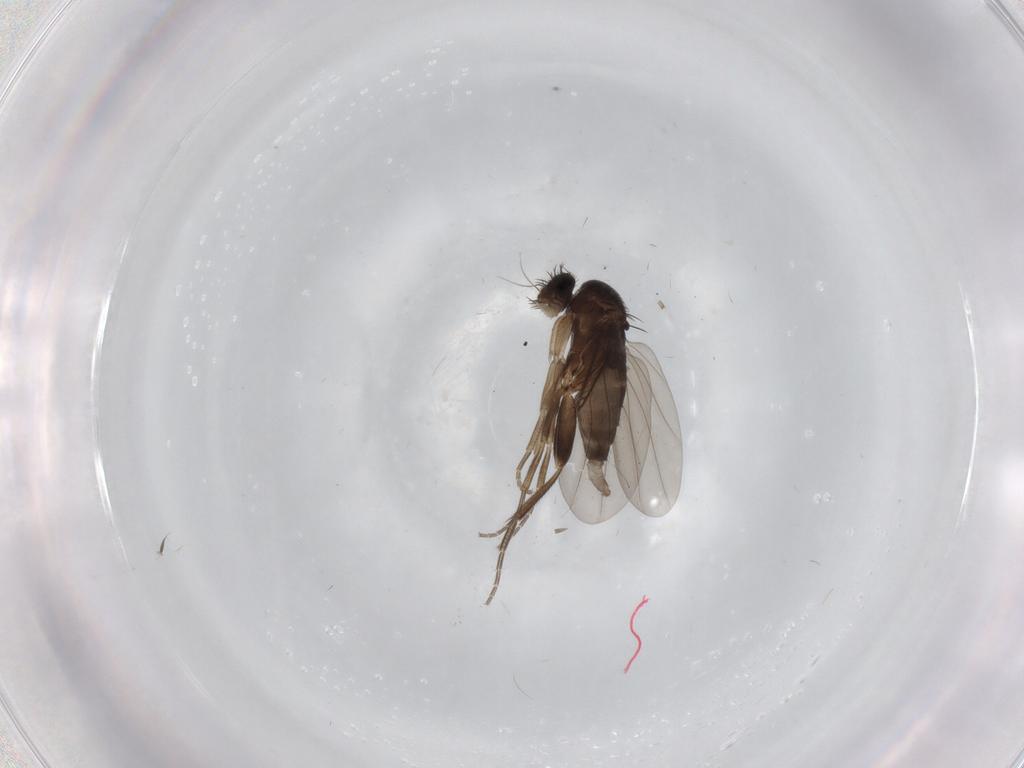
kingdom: Animalia
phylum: Arthropoda
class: Insecta
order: Diptera
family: Phoridae
